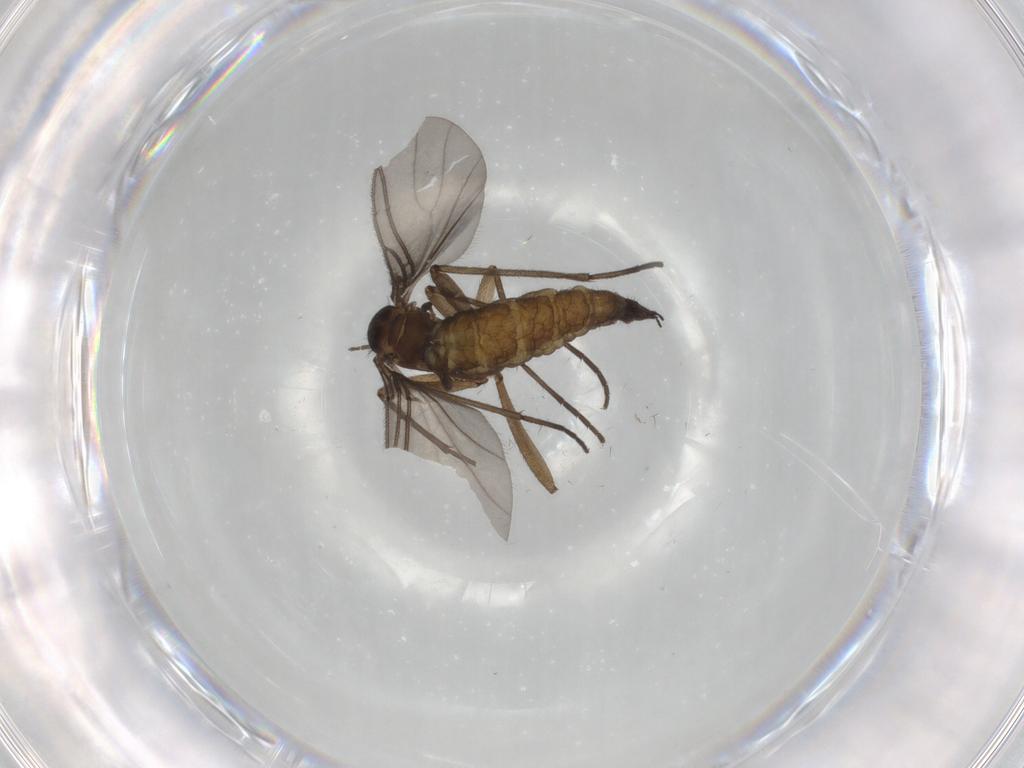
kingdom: Animalia
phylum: Arthropoda
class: Insecta
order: Diptera
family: Sciaridae
